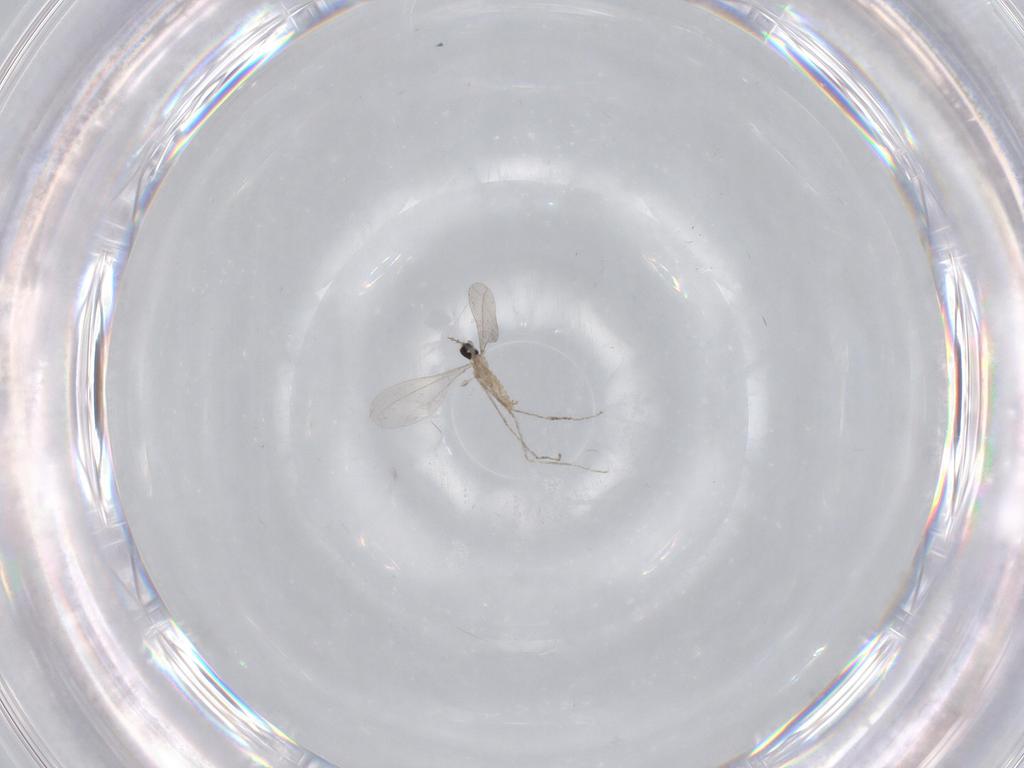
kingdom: Animalia
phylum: Arthropoda
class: Insecta
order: Diptera
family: Cecidomyiidae
